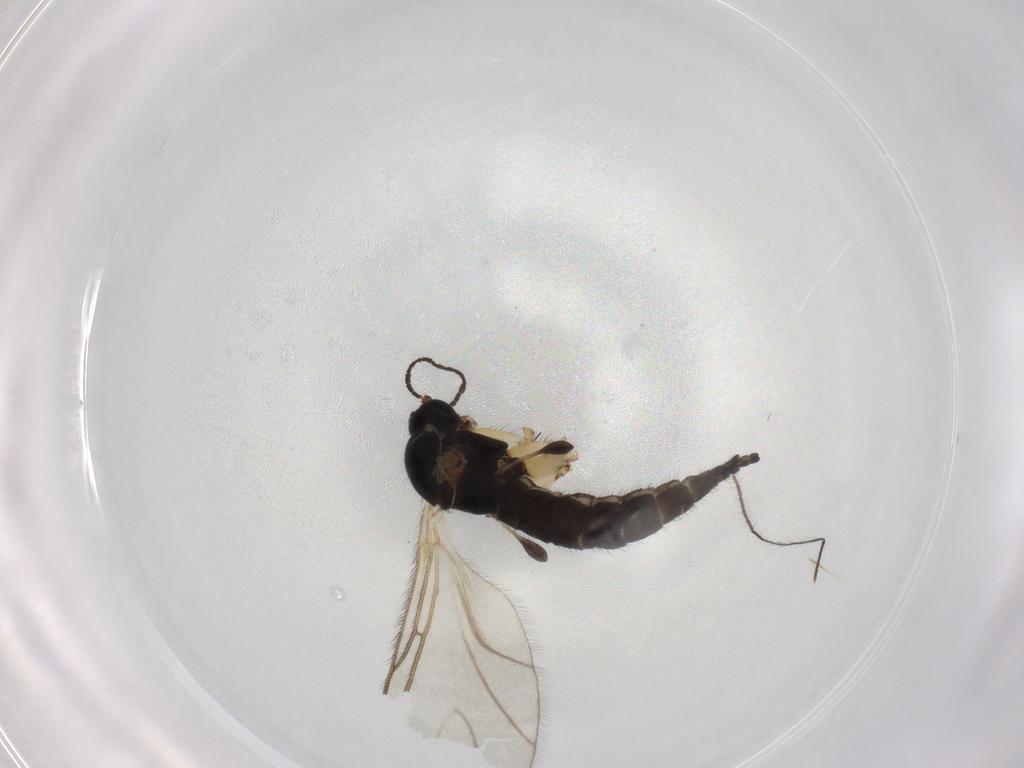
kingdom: Animalia
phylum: Arthropoda
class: Insecta
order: Diptera
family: Sciaridae
